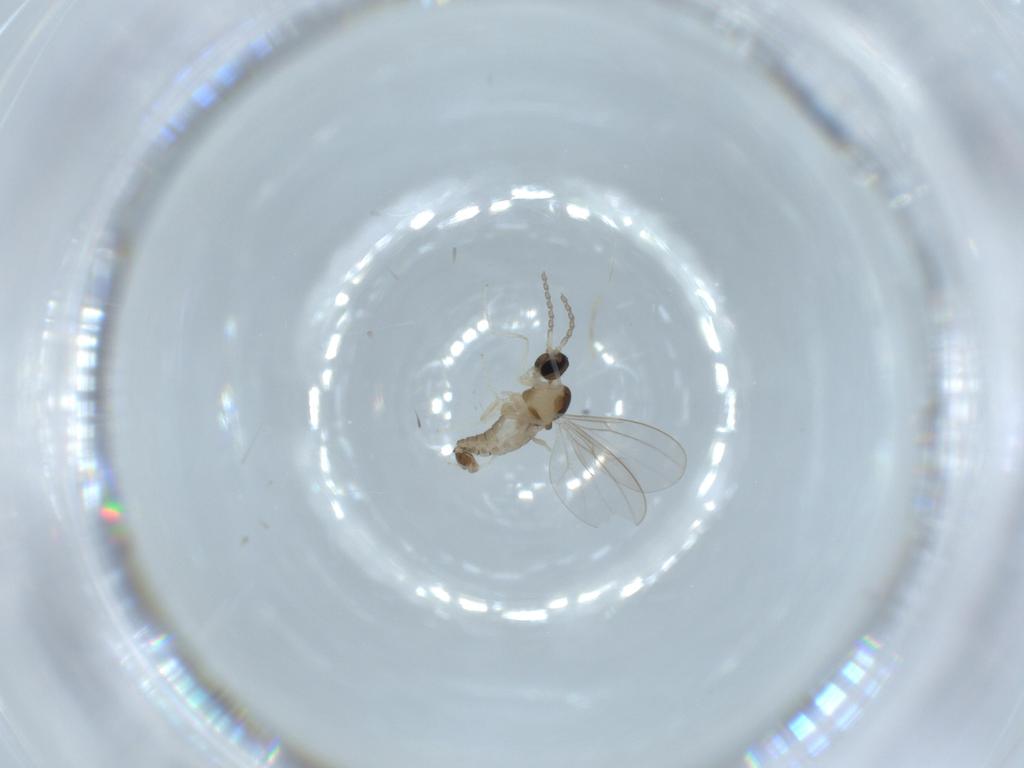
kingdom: Animalia
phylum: Arthropoda
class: Insecta
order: Diptera
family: Cecidomyiidae
